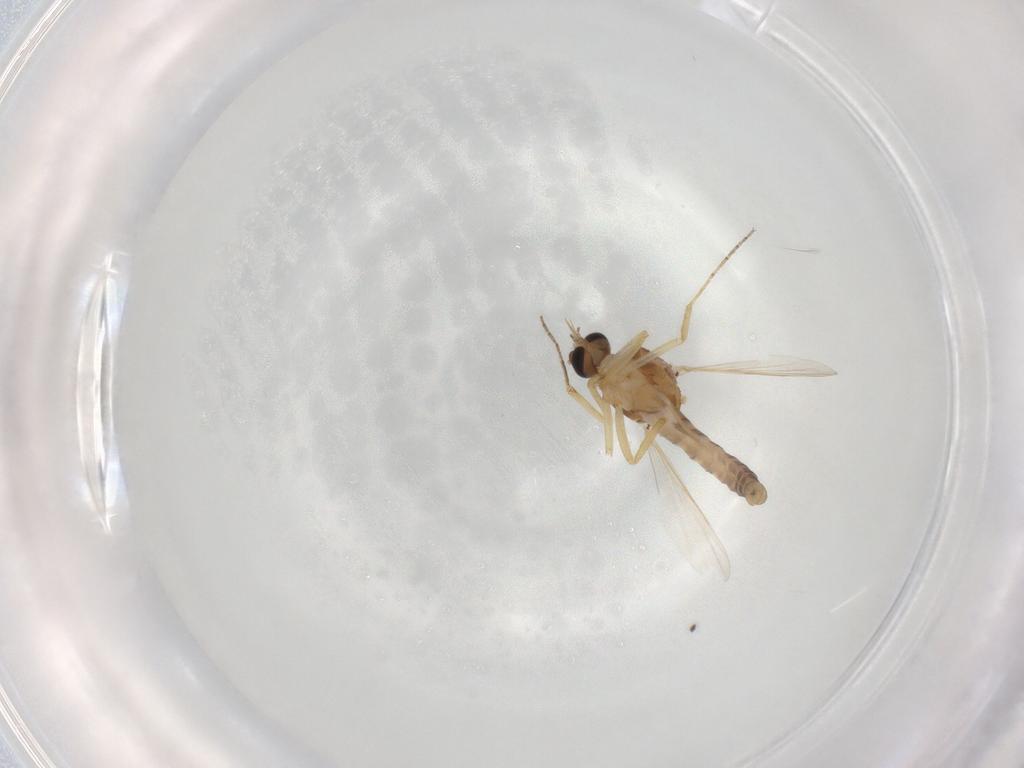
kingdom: Animalia
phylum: Arthropoda
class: Insecta
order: Diptera
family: Ceratopogonidae
